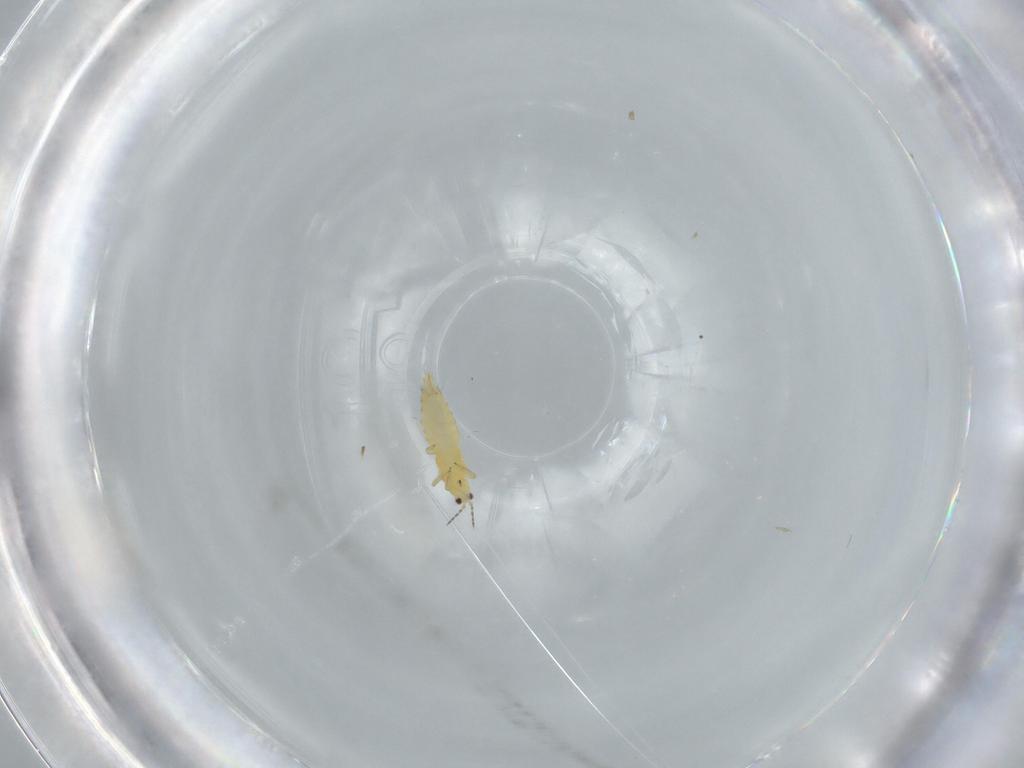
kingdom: Animalia
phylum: Arthropoda
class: Insecta
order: Thysanoptera
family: Thripidae
